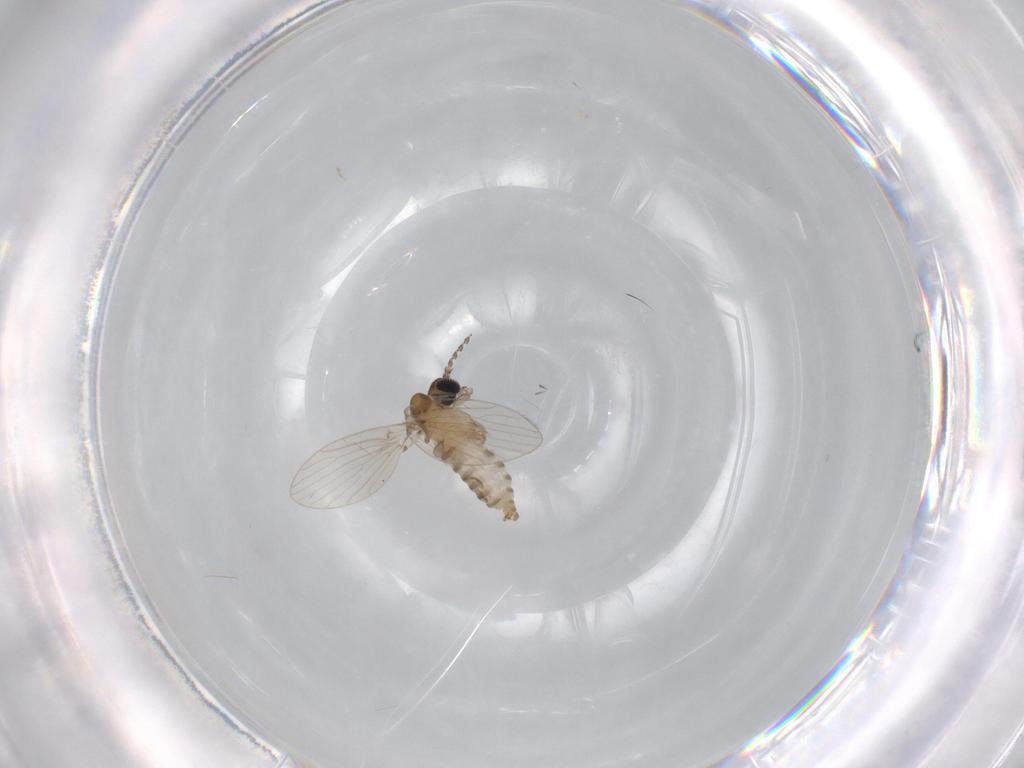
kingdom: Animalia
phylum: Arthropoda
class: Insecta
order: Diptera
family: Psychodidae
